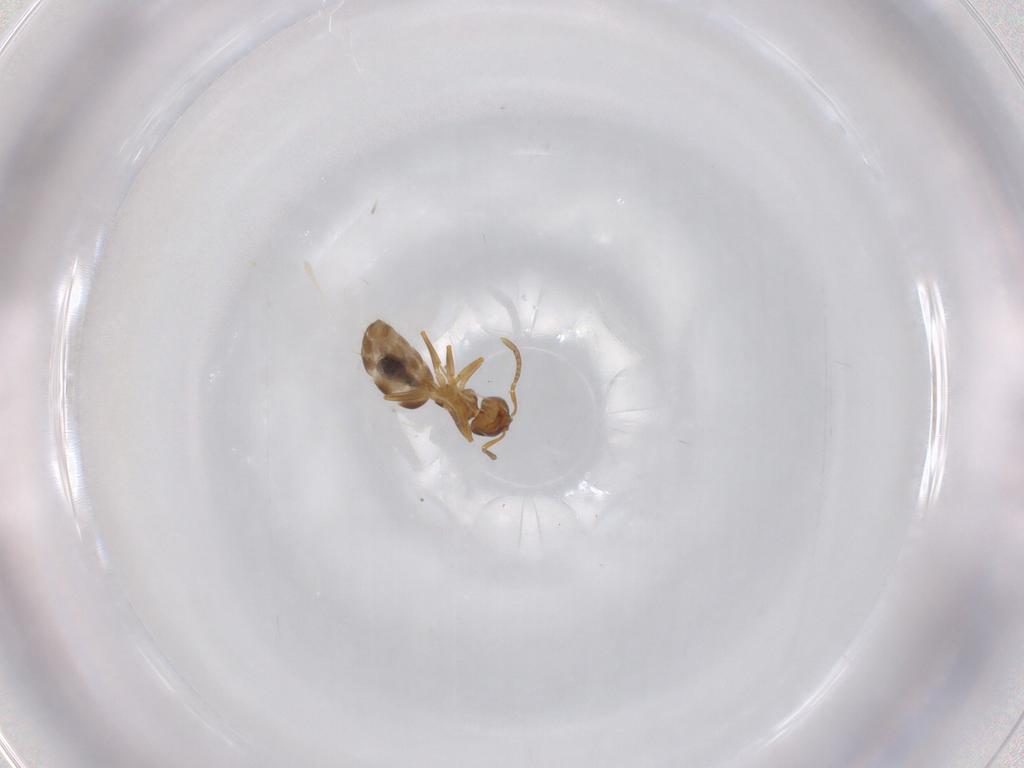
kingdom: Animalia
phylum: Arthropoda
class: Insecta
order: Hymenoptera
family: Formicidae
